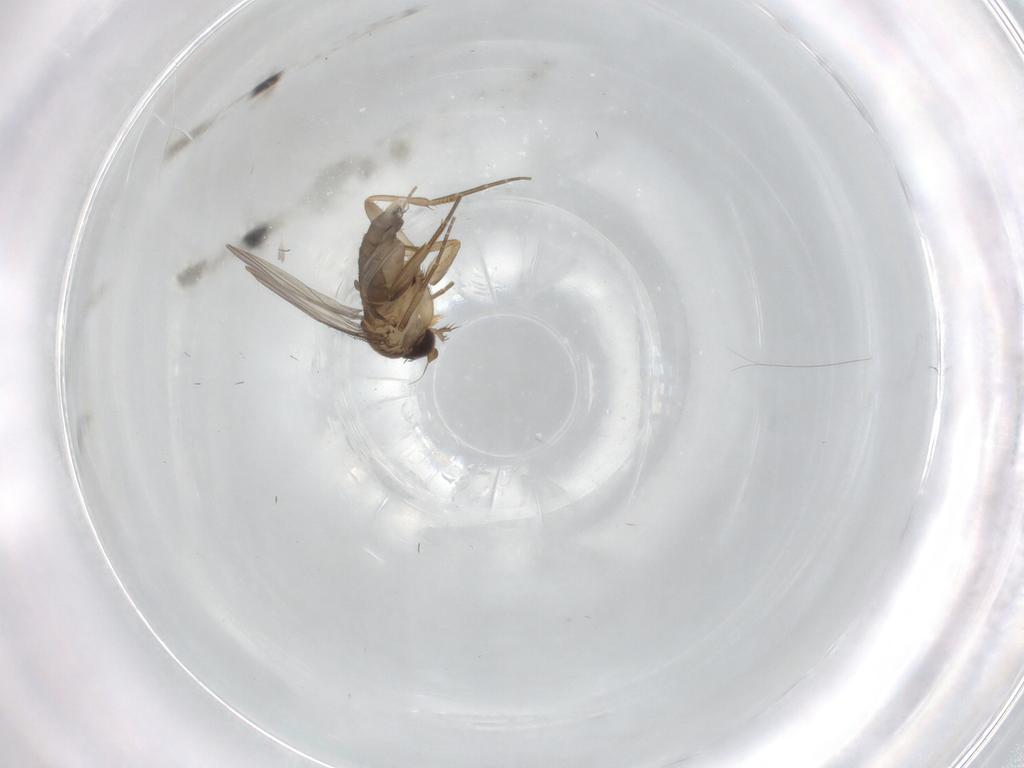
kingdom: Animalia
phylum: Arthropoda
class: Insecta
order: Diptera
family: Phoridae
